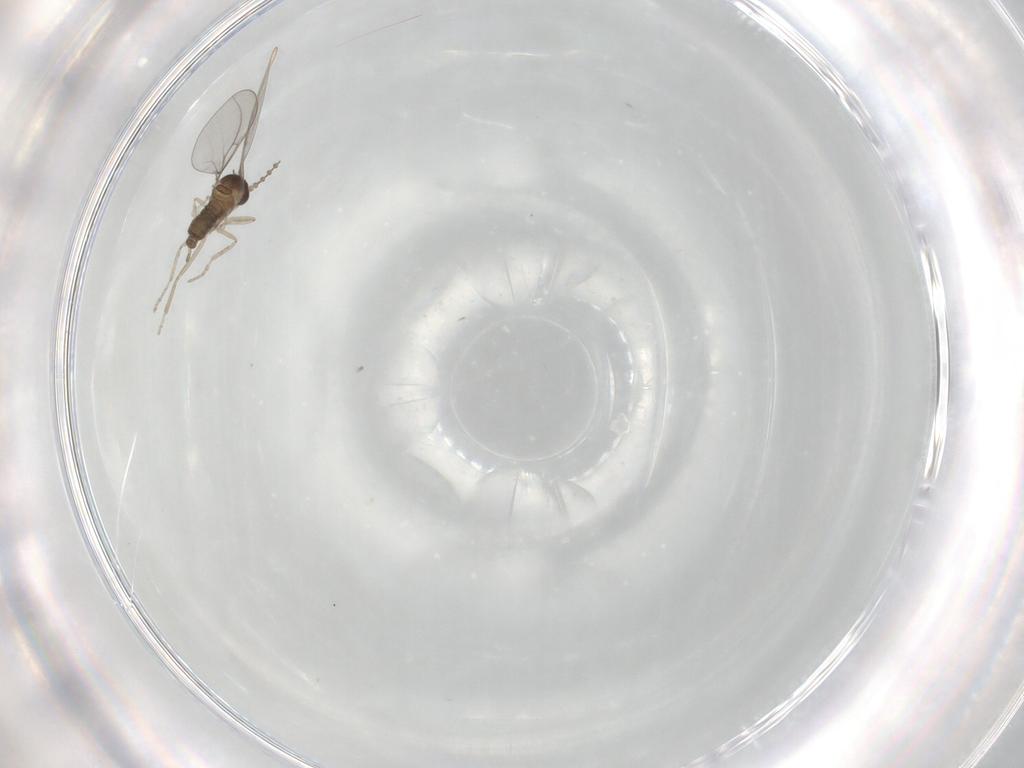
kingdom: Animalia
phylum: Arthropoda
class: Insecta
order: Diptera
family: Cecidomyiidae
